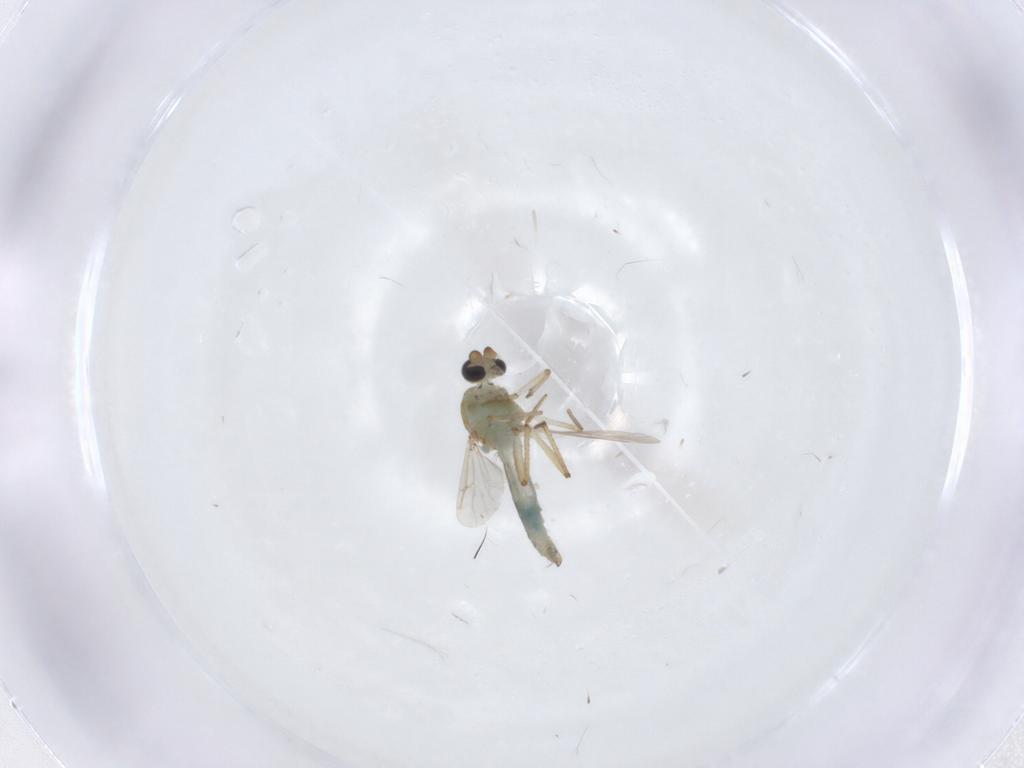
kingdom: Animalia
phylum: Arthropoda
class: Insecta
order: Diptera
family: Ceratopogonidae
